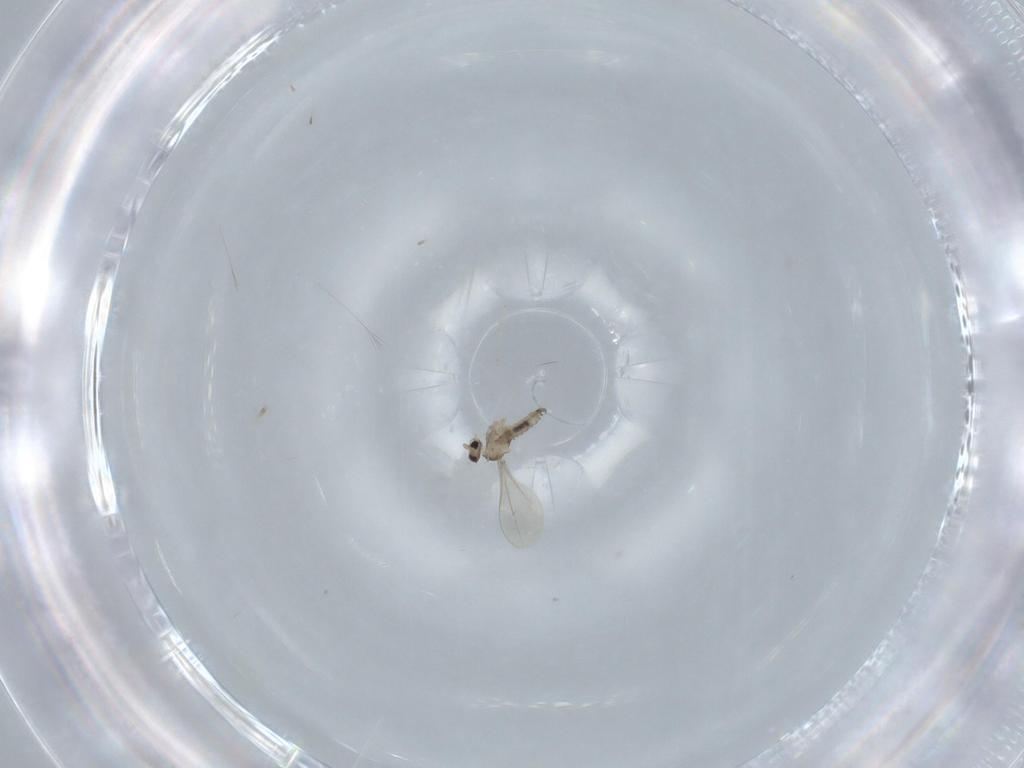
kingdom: Animalia
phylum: Arthropoda
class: Insecta
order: Diptera
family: Cecidomyiidae
